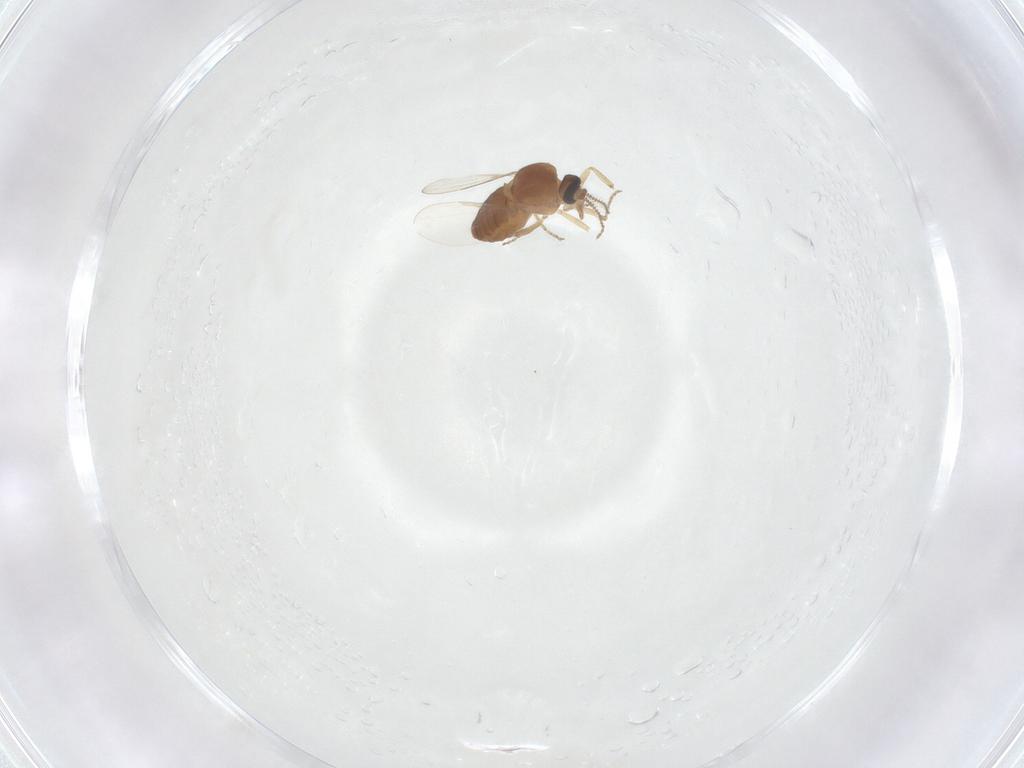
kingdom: Animalia
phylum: Arthropoda
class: Insecta
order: Diptera
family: Ceratopogonidae
